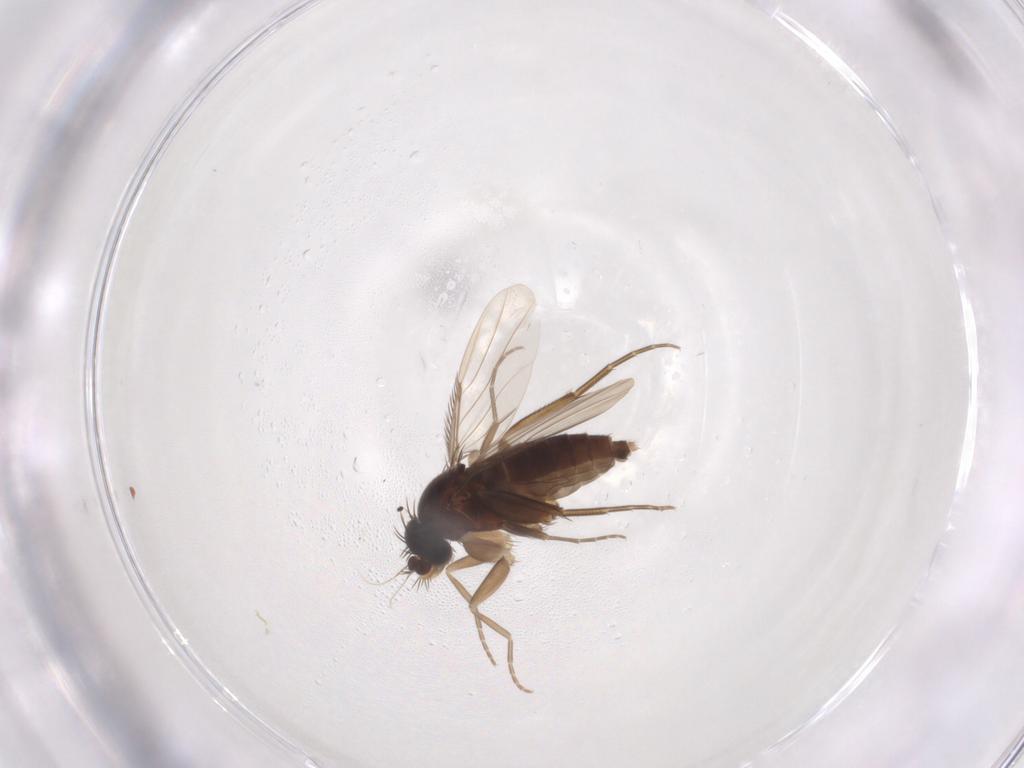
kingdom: Animalia
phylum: Arthropoda
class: Insecta
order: Diptera
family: Phoridae
